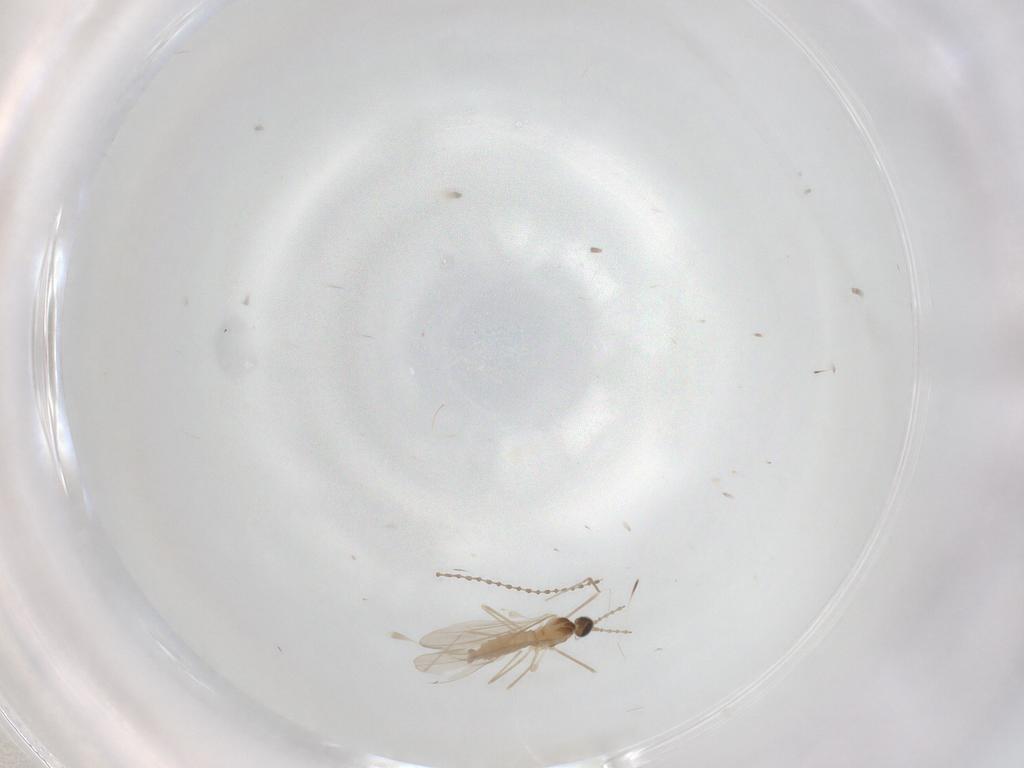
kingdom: Animalia
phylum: Arthropoda
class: Insecta
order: Diptera
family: Cecidomyiidae
